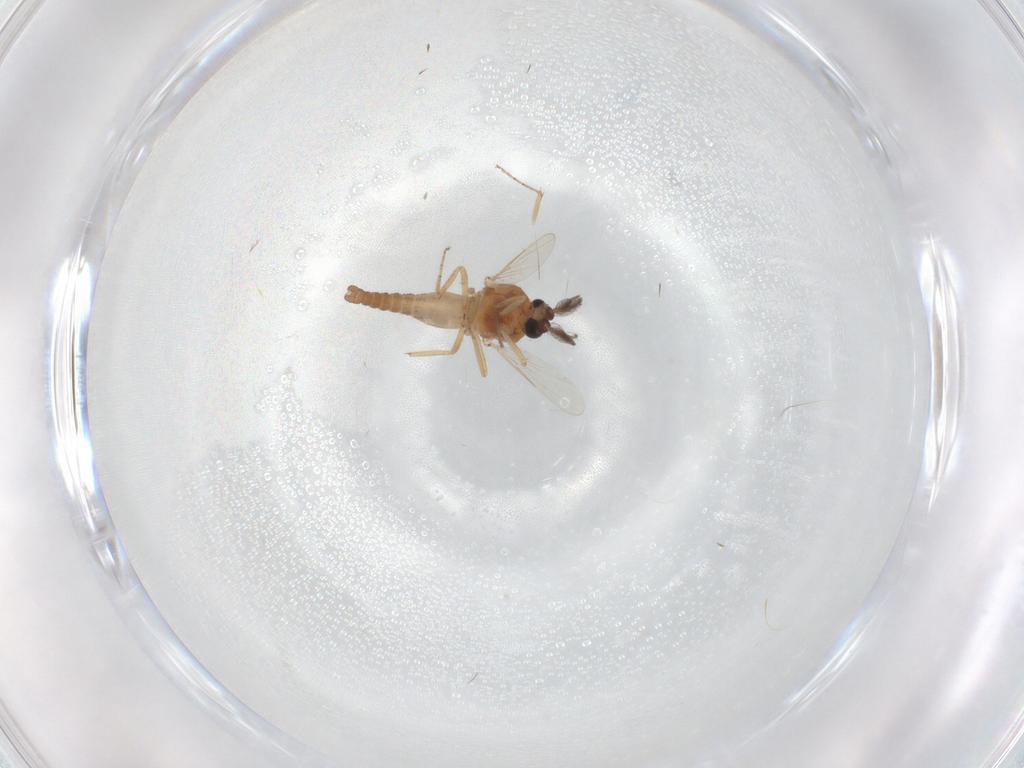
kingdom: Animalia
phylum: Arthropoda
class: Insecta
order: Diptera
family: Ceratopogonidae
